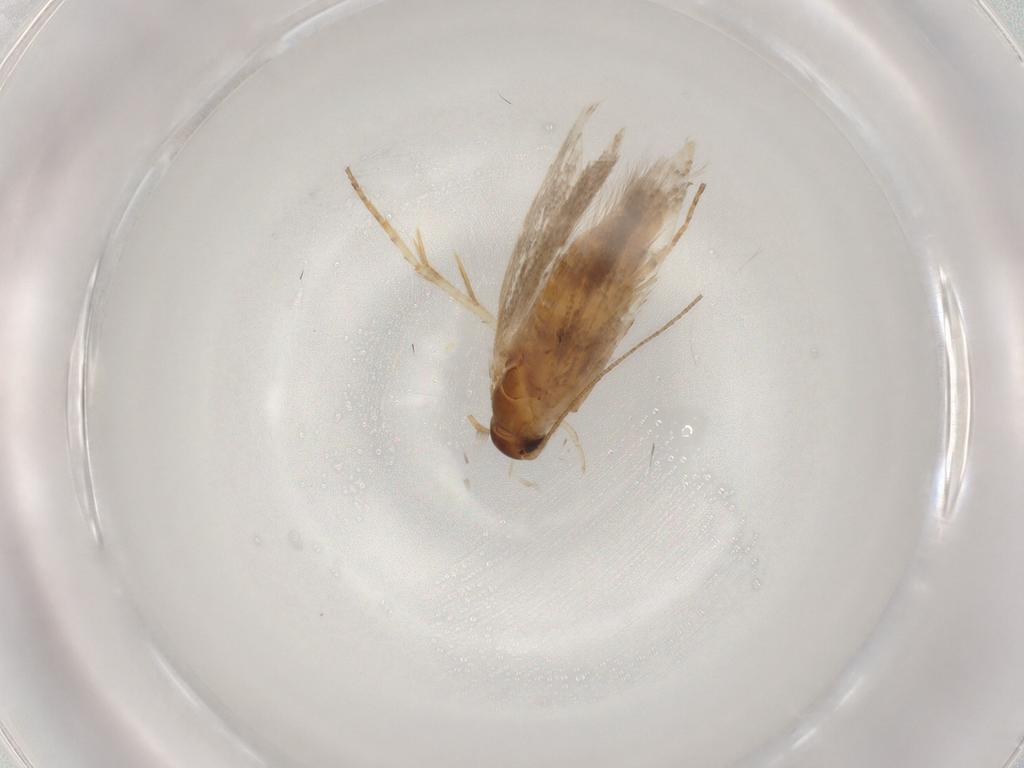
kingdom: Animalia
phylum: Arthropoda
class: Insecta
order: Lepidoptera
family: Gelechiidae
